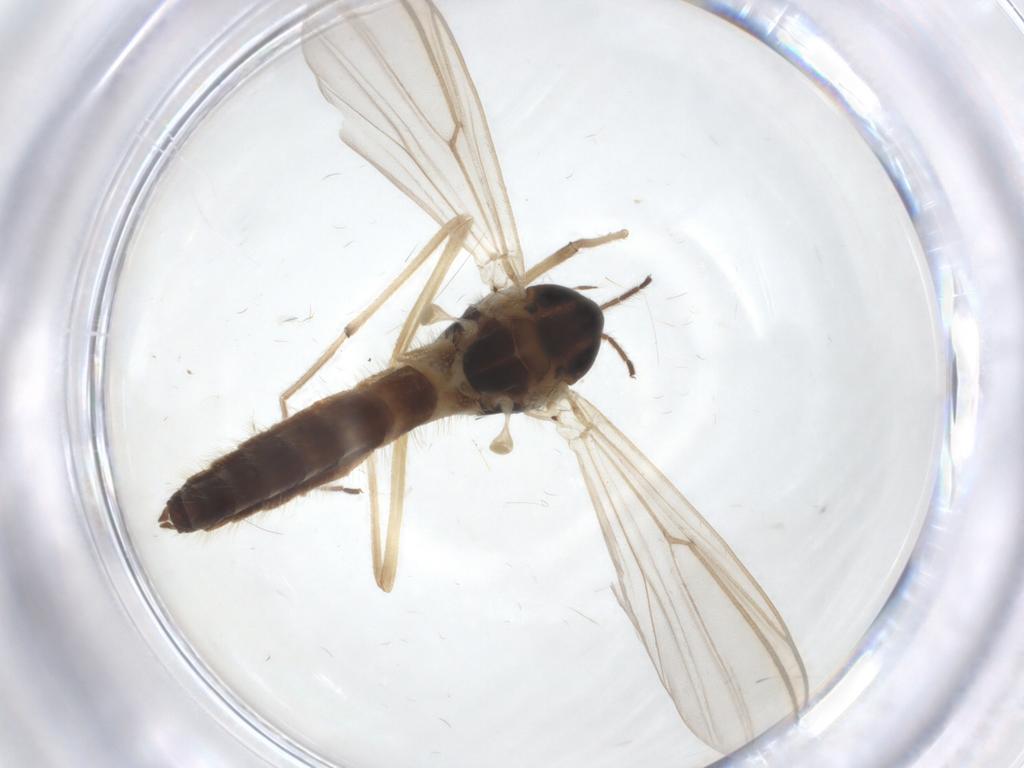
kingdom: Animalia
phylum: Arthropoda
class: Insecta
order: Diptera
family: Chironomidae
